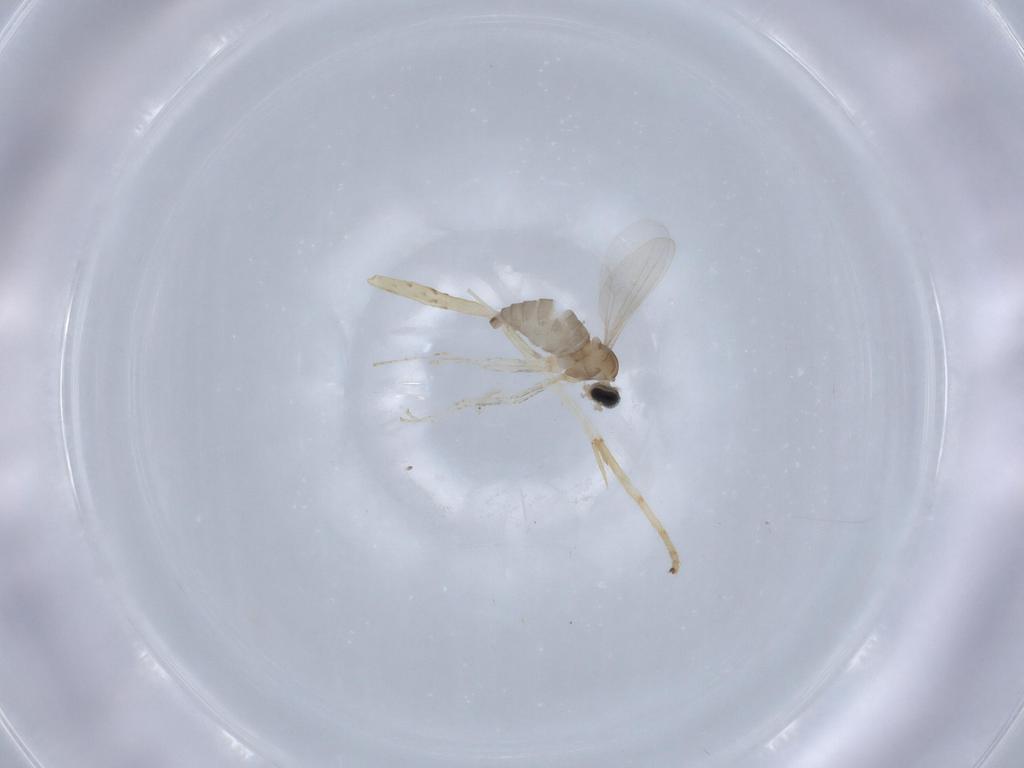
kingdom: Animalia
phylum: Arthropoda
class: Insecta
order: Diptera
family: Cecidomyiidae
